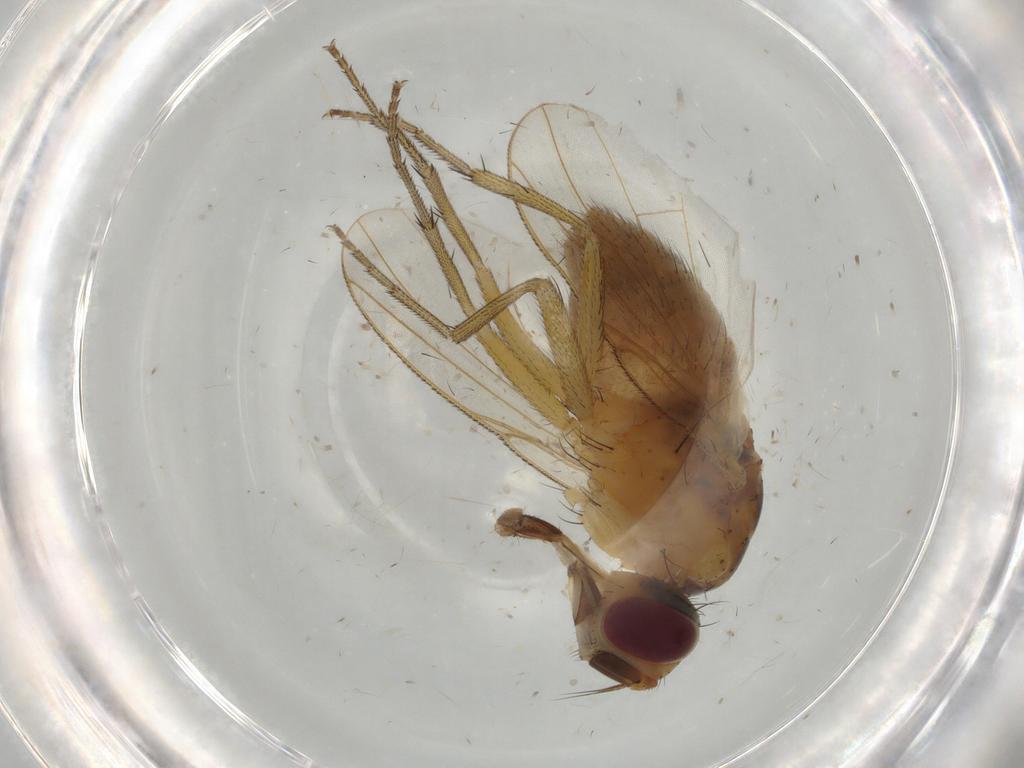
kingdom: Animalia
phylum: Arthropoda
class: Insecta
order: Diptera
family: Muscidae
